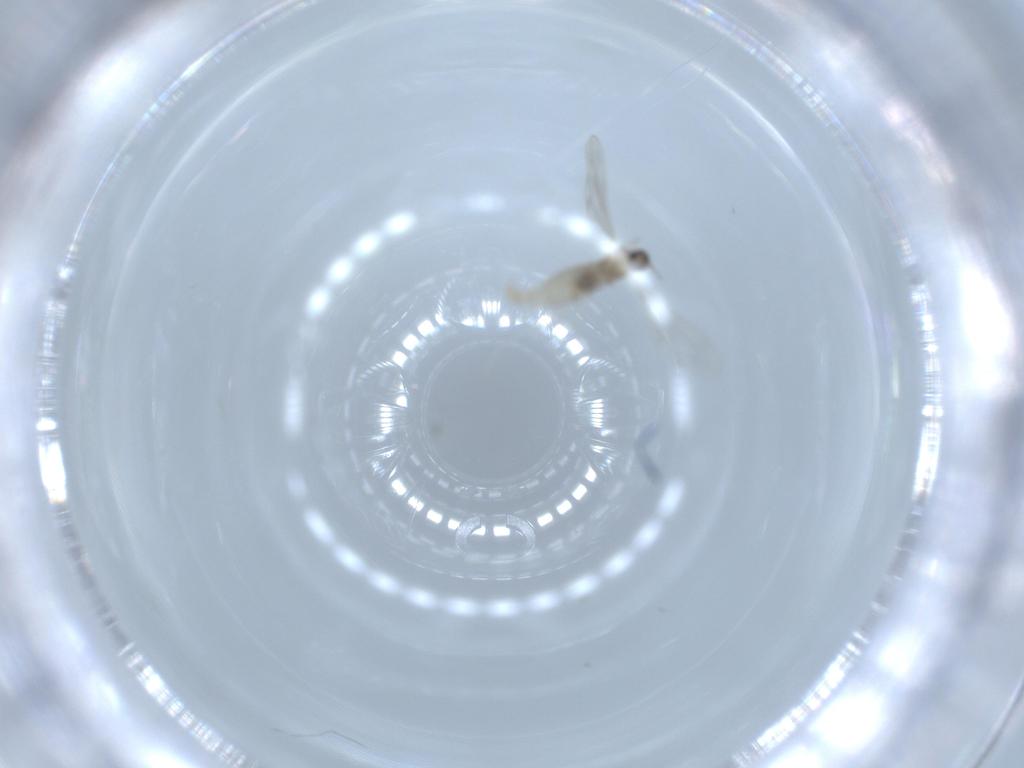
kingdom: Animalia
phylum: Arthropoda
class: Insecta
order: Diptera
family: Cecidomyiidae
